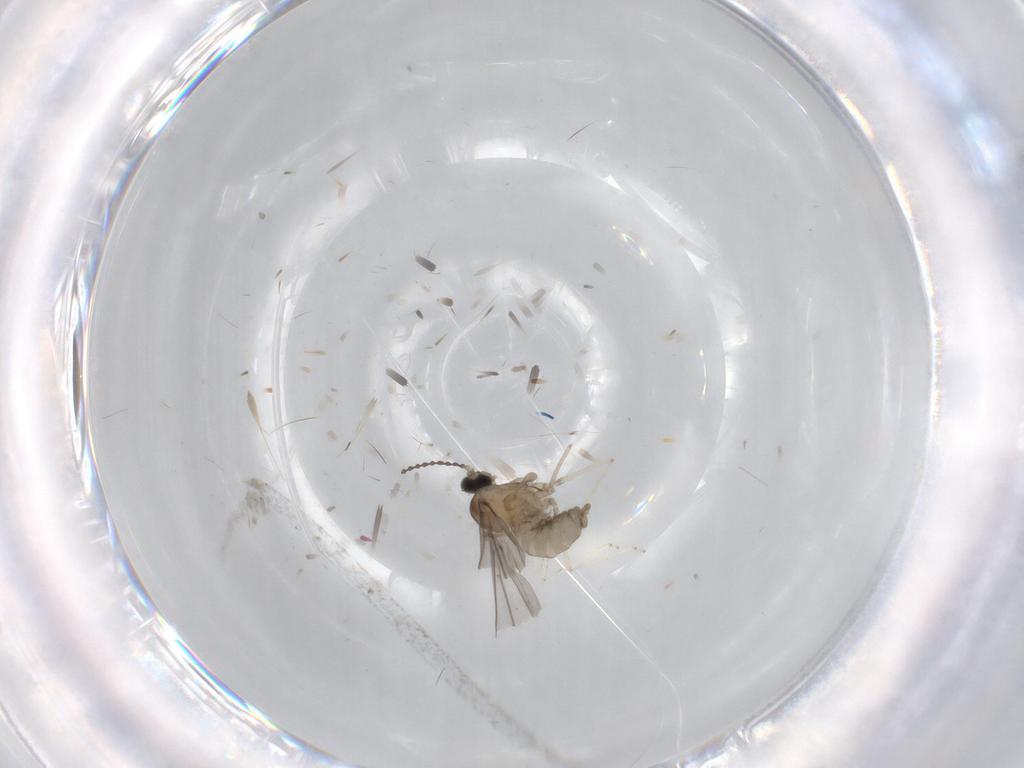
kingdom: Animalia
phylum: Arthropoda
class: Insecta
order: Diptera
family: Cecidomyiidae
